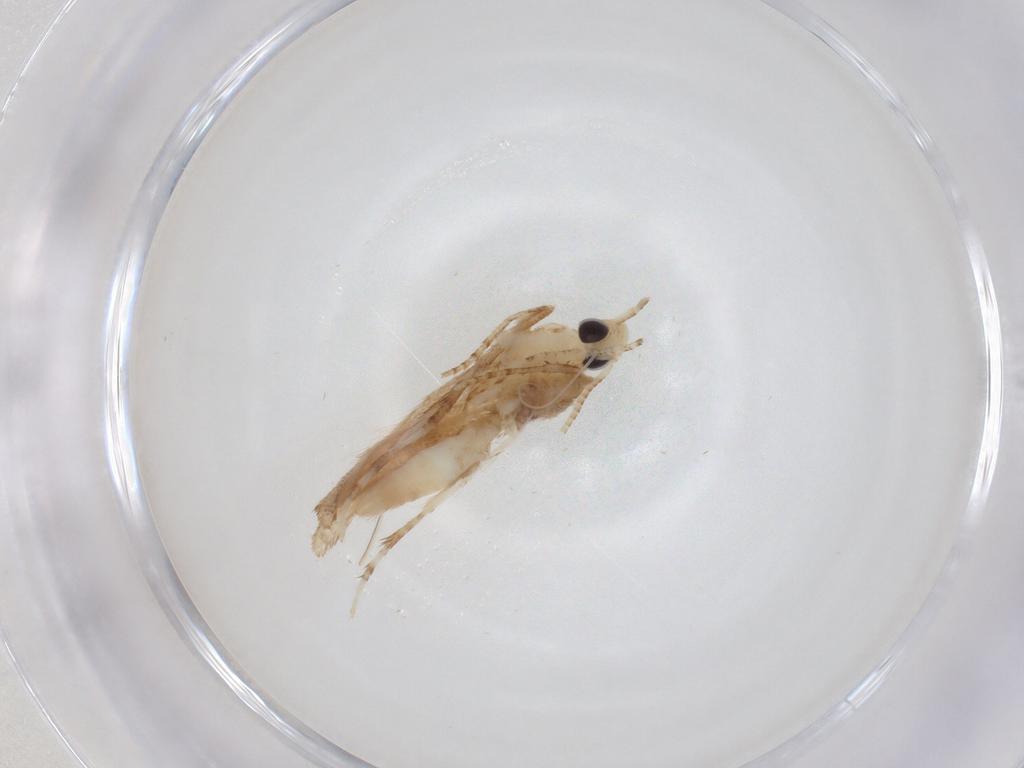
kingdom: Animalia
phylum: Arthropoda
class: Insecta
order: Lepidoptera
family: Gracillariidae
